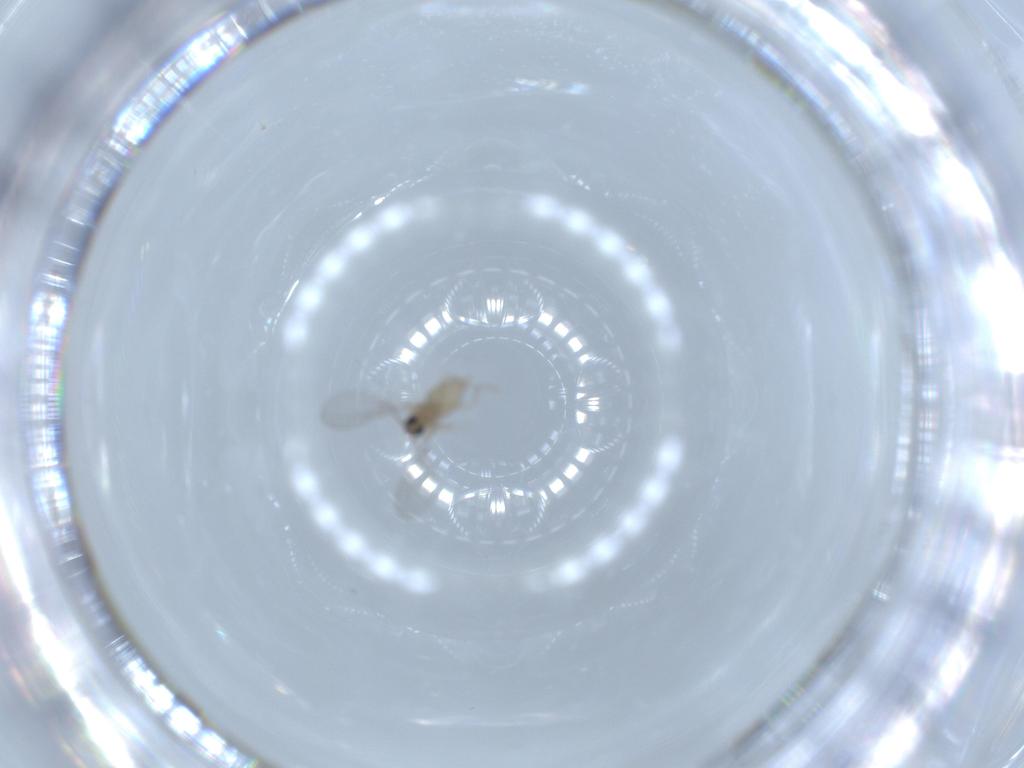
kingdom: Animalia
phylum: Arthropoda
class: Insecta
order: Diptera
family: Cecidomyiidae
